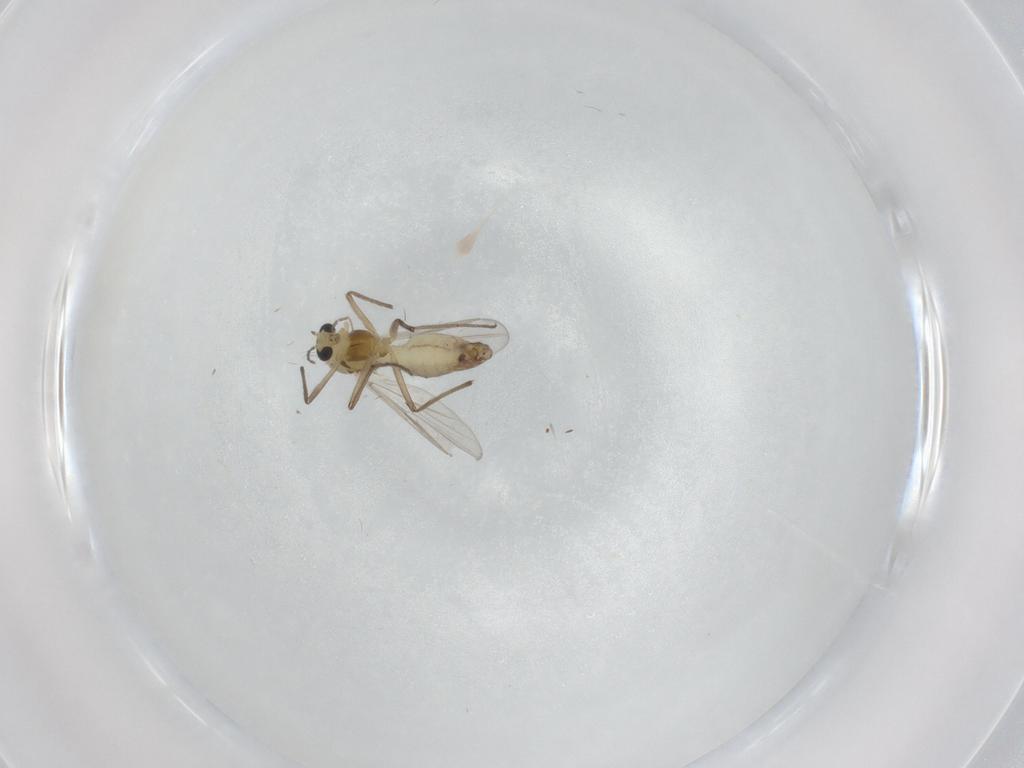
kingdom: Animalia
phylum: Arthropoda
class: Insecta
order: Diptera
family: Chironomidae
